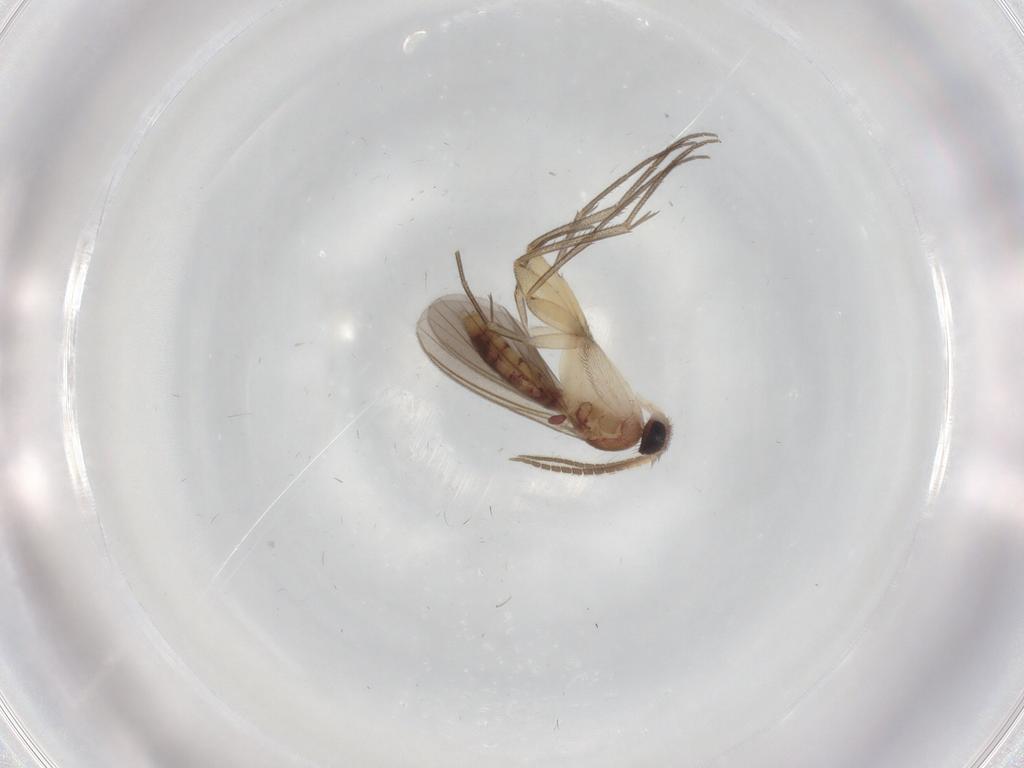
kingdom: Animalia
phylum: Arthropoda
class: Insecta
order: Diptera
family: Mycetophilidae
